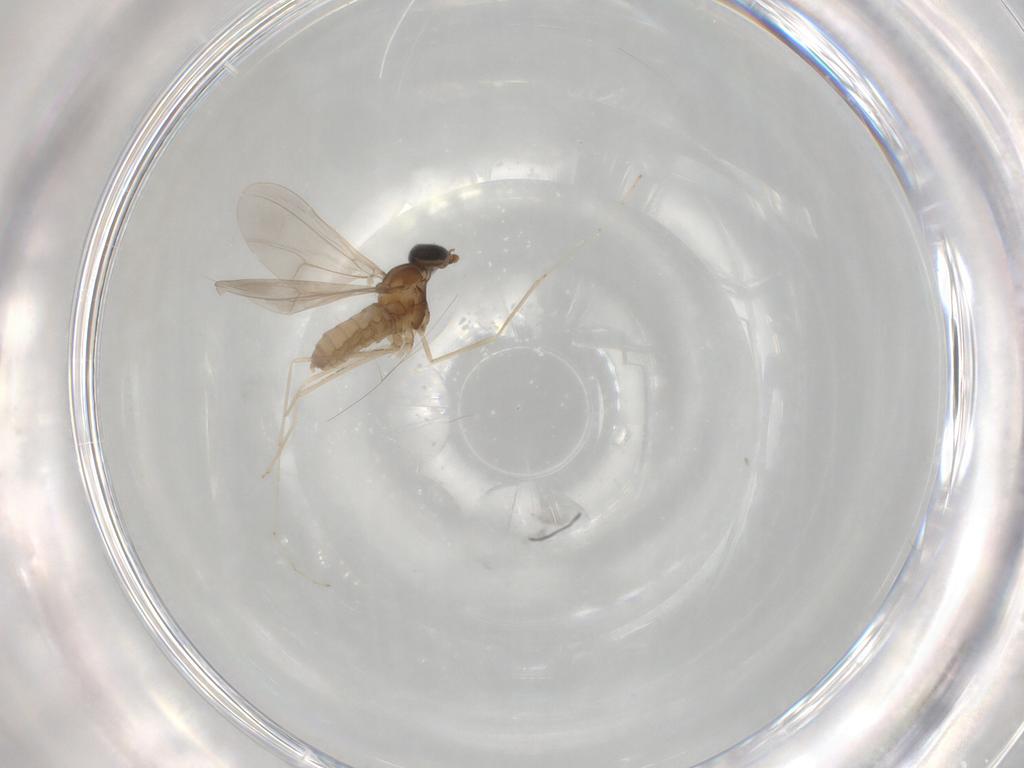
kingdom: Animalia
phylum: Arthropoda
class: Insecta
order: Diptera
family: Cecidomyiidae
